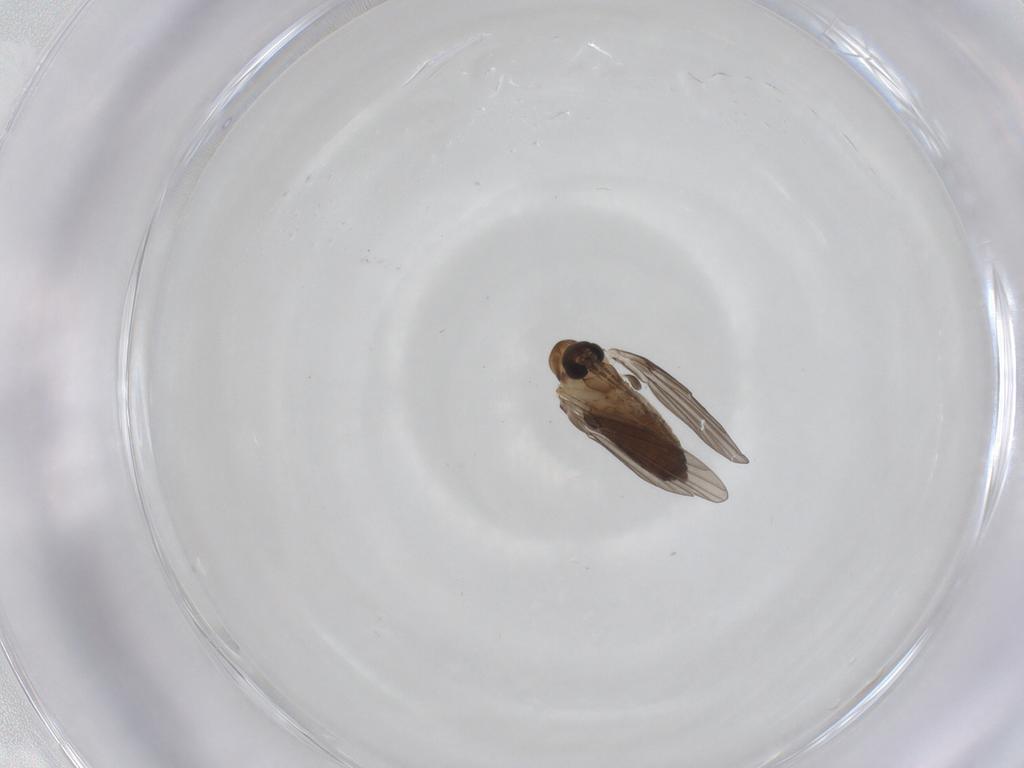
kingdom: Animalia
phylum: Arthropoda
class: Insecta
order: Diptera
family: Psychodidae
